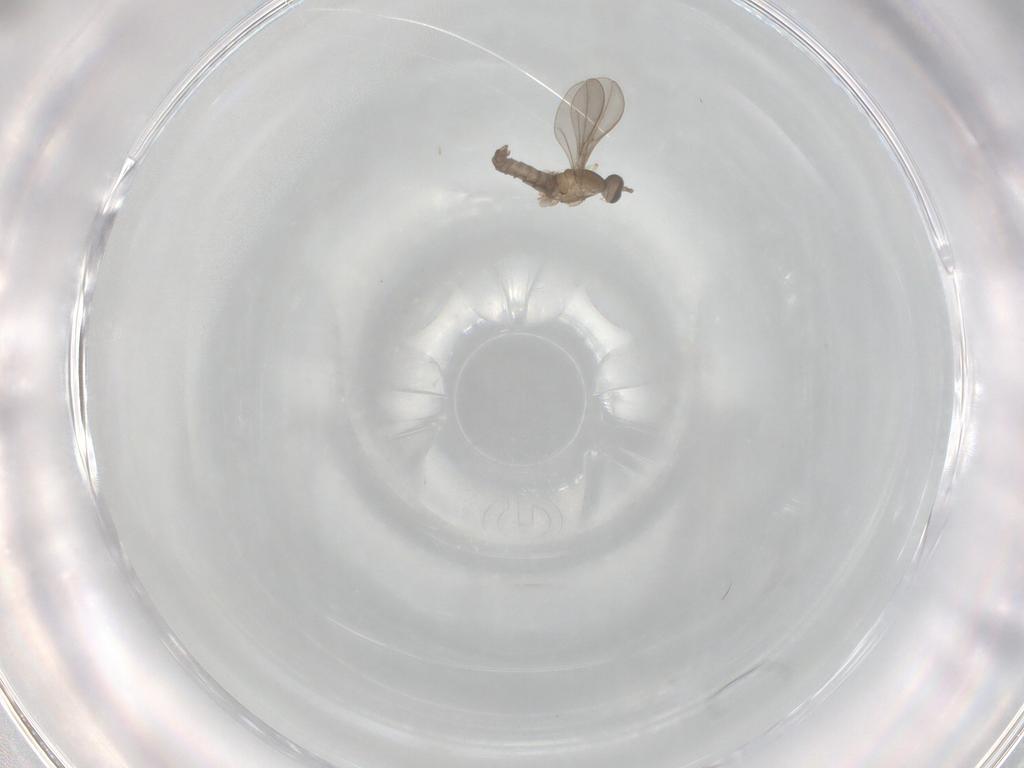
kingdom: Animalia
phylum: Arthropoda
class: Insecta
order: Diptera
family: Cecidomyiidae
